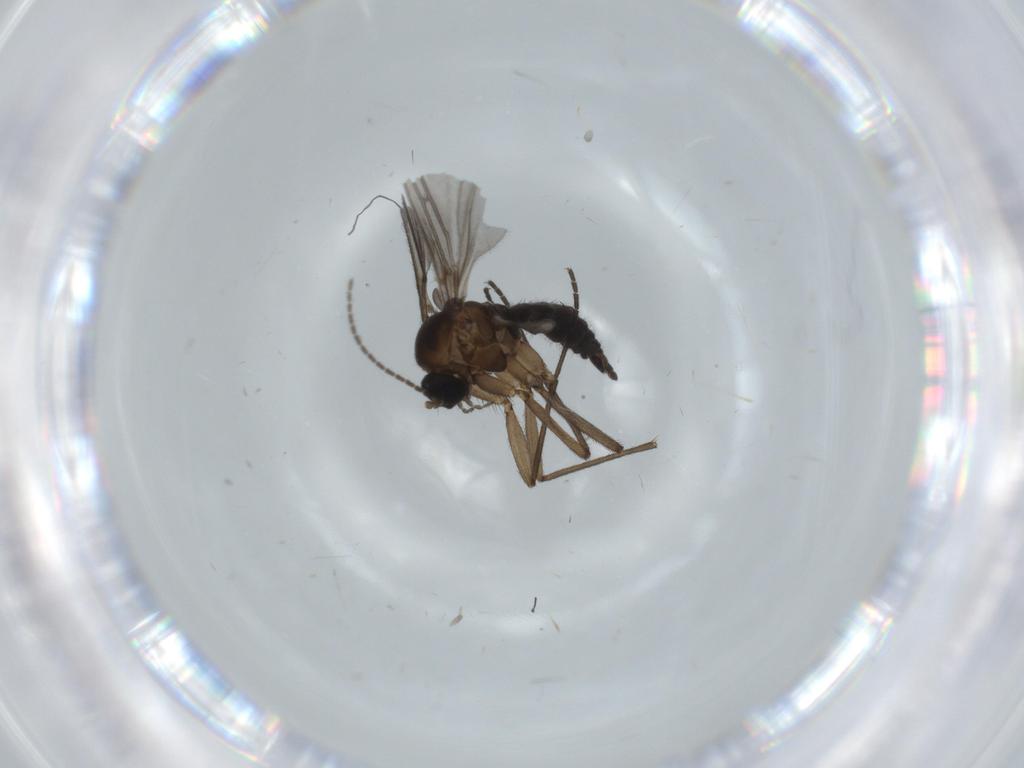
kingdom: Animalia
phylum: Arthropoda
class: Insecta
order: Diptera
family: Sciaridae
